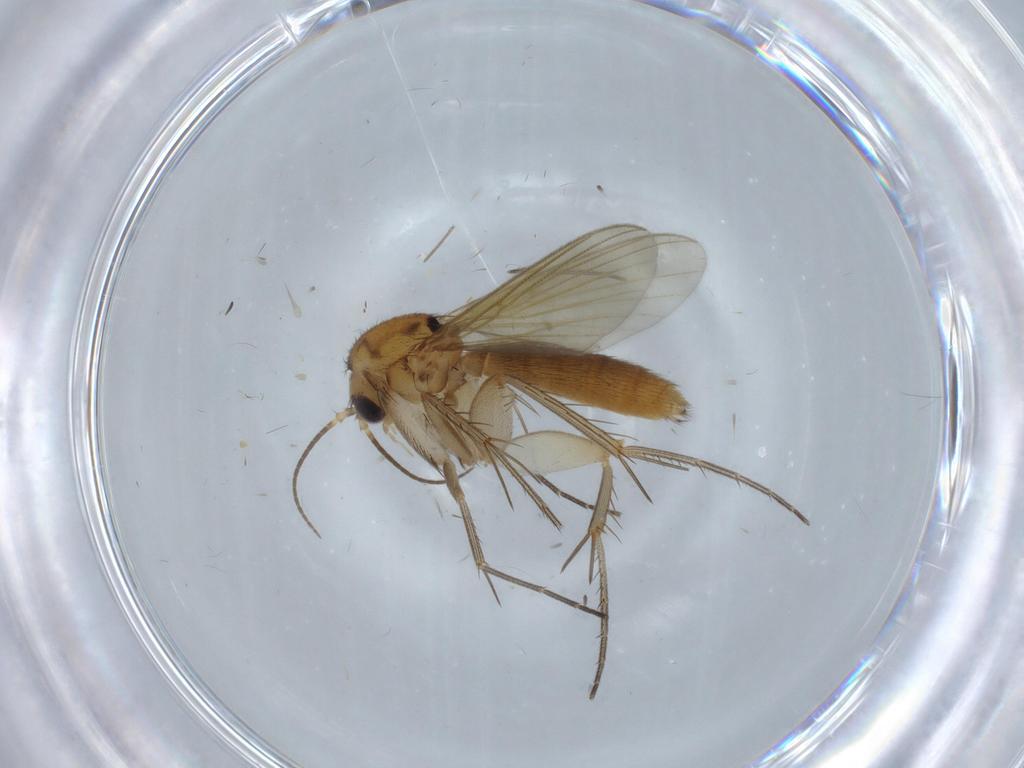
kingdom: Animalia
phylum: Arthropoda
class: Insecta
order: Diptera
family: Mycetophilidae
